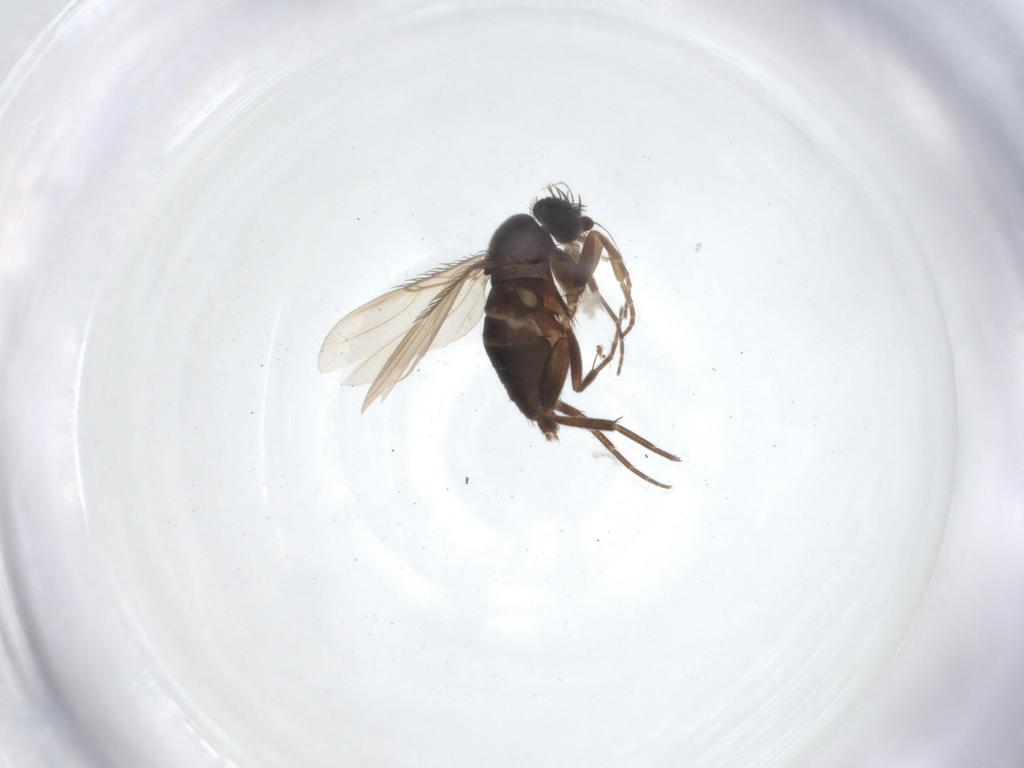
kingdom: Animalia
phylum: Arthropoda
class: Insecta
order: Diptera
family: Phoridae
